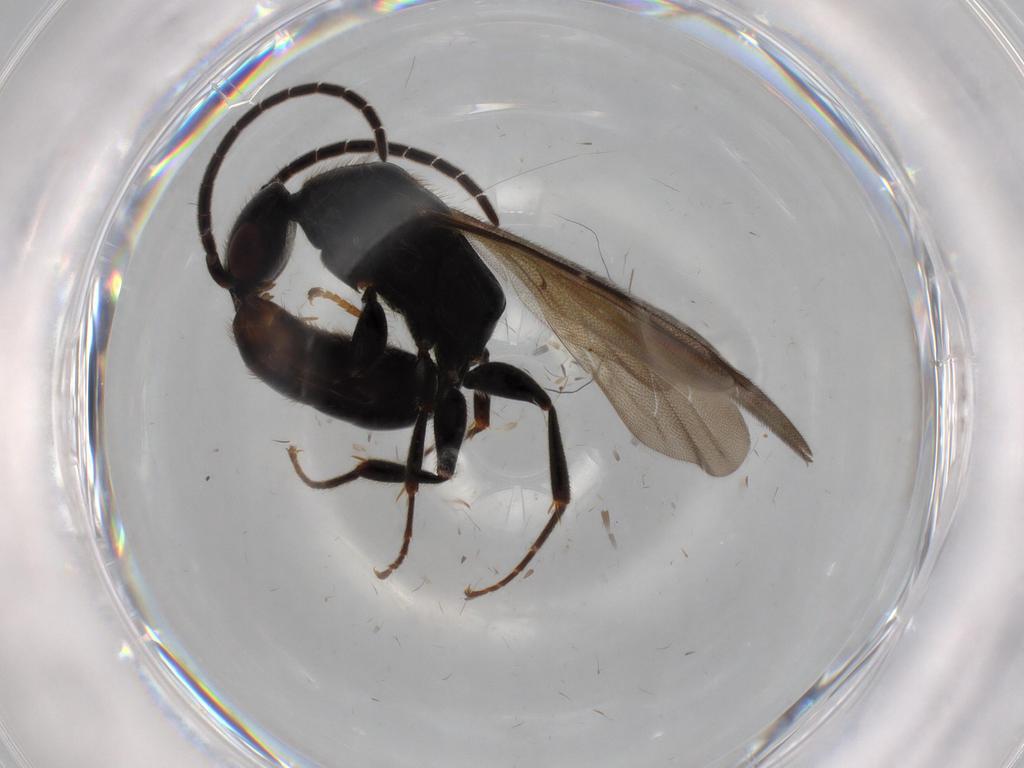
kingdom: Animalia
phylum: Arthropoda
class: Insecta
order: Hymenoptera
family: Bethylidae
